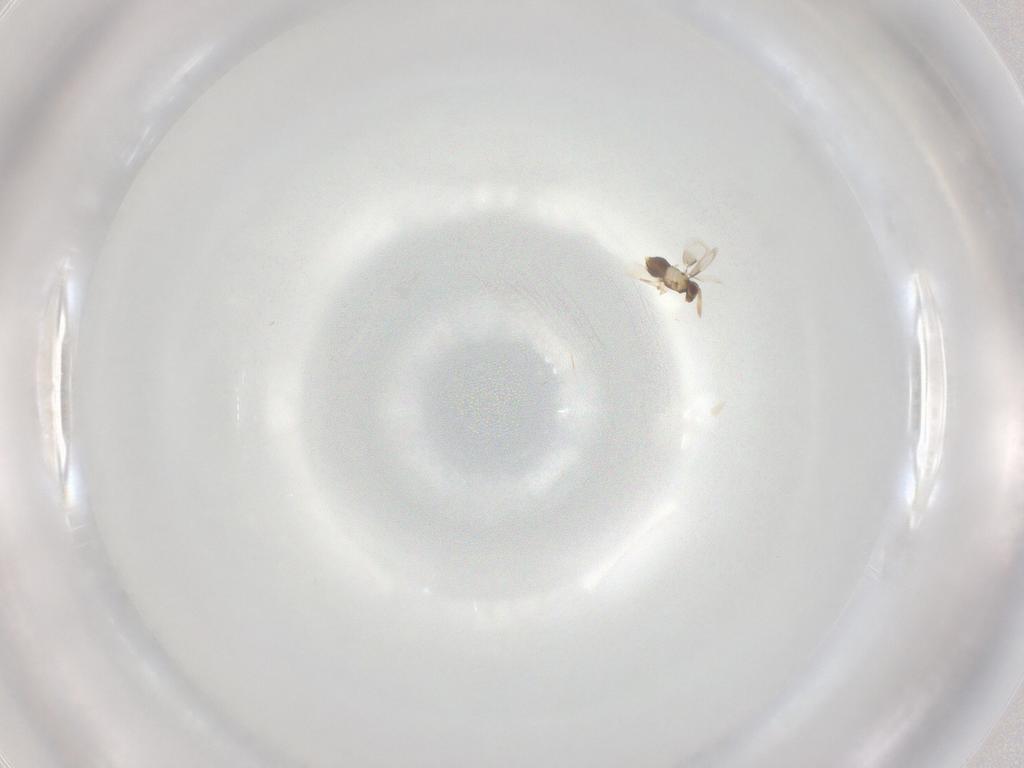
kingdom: Animalia
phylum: Arthropoda
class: Insecta
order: Hymenoptera
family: Aphelinidae
